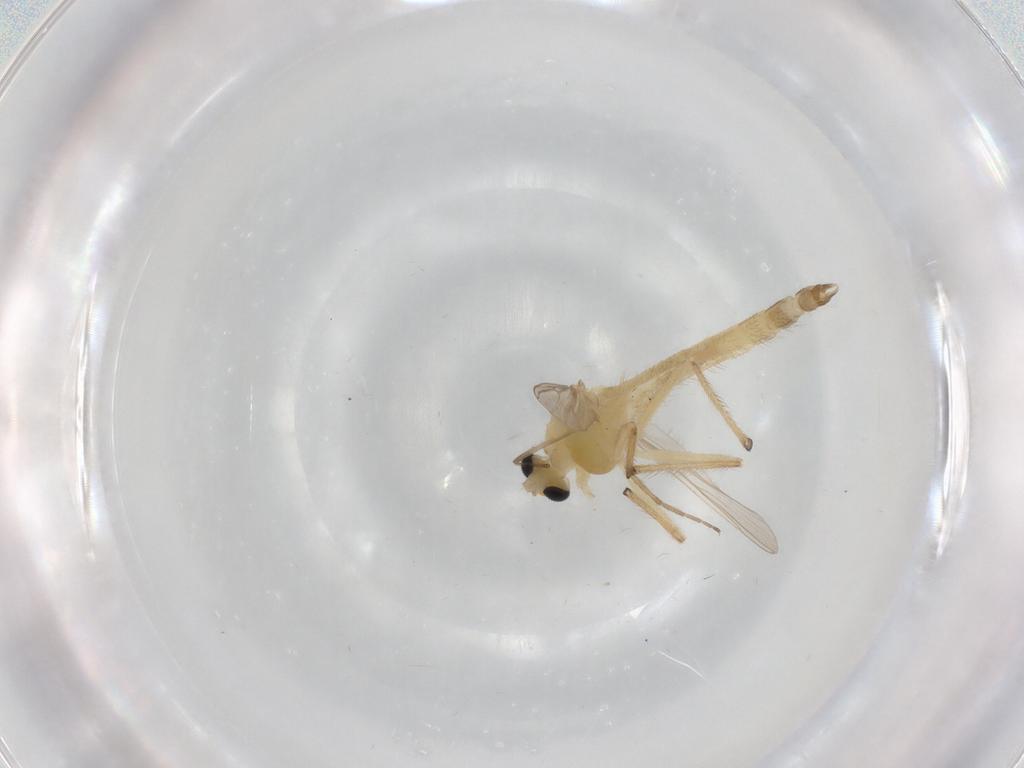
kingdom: Animalia
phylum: Arthropoda
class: Insecta
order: Diptera
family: Chironomidae
